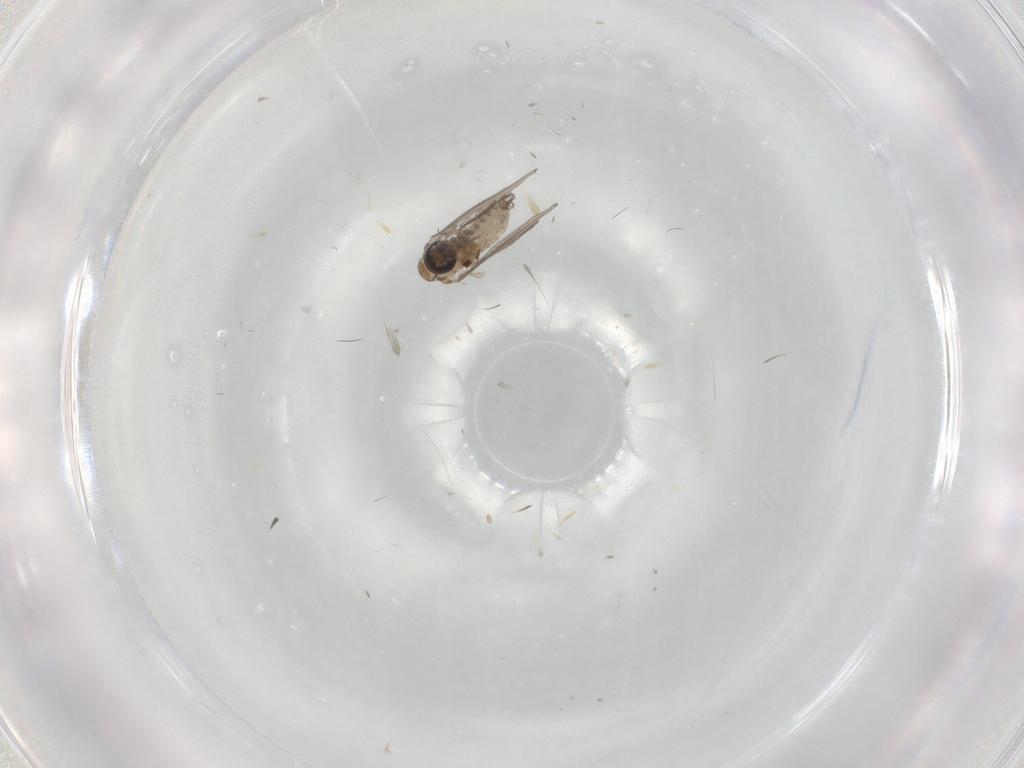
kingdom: Animalia
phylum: Arthropoda
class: Insecta
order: Diptera
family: Psychodidae
